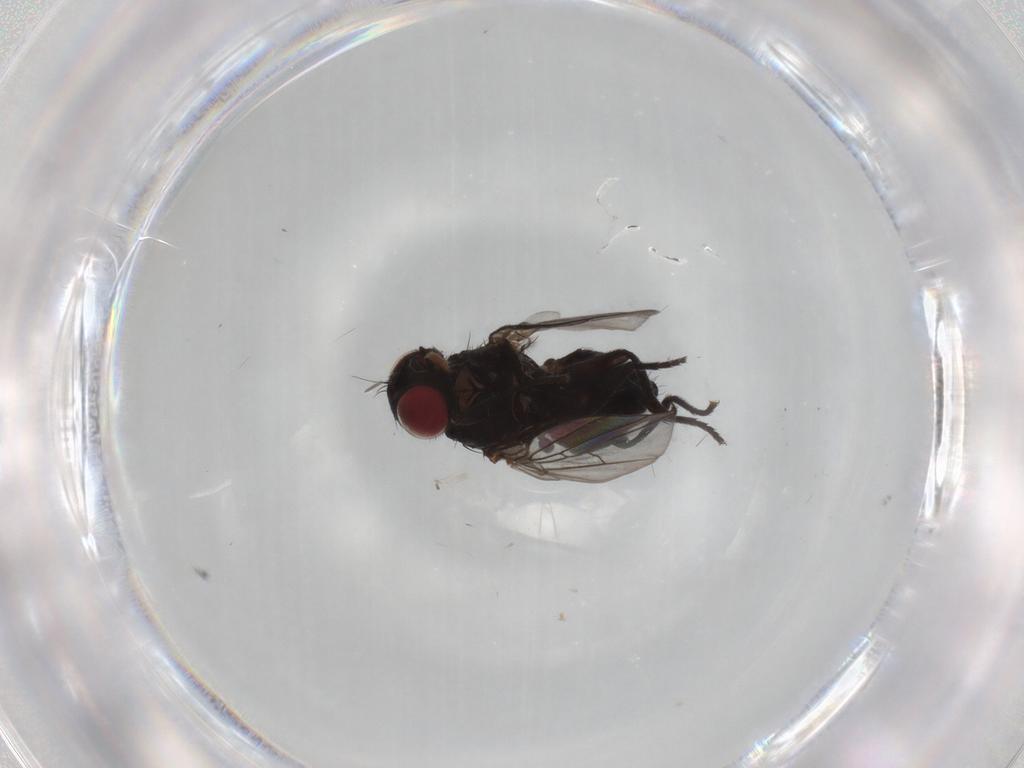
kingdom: Animalia
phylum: Arthropoda
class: Insecta
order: Diptera
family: Agromyzidae
